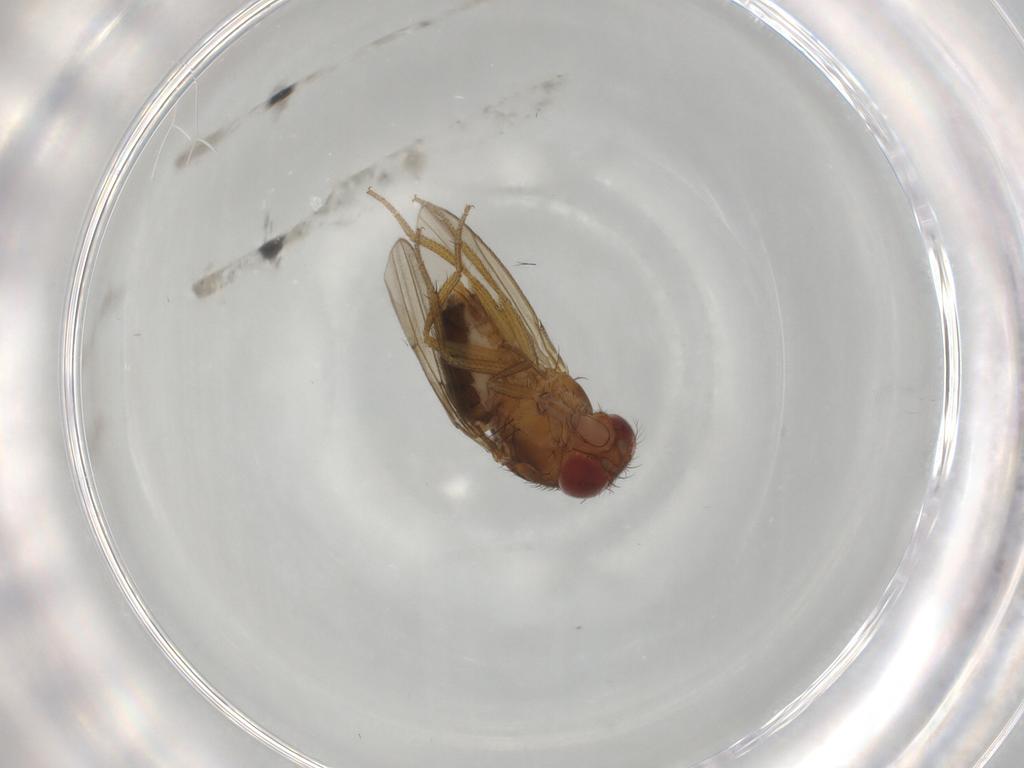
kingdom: Animalia
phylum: Arthropoda
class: Insecta
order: Diptera
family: Drosophilidae
